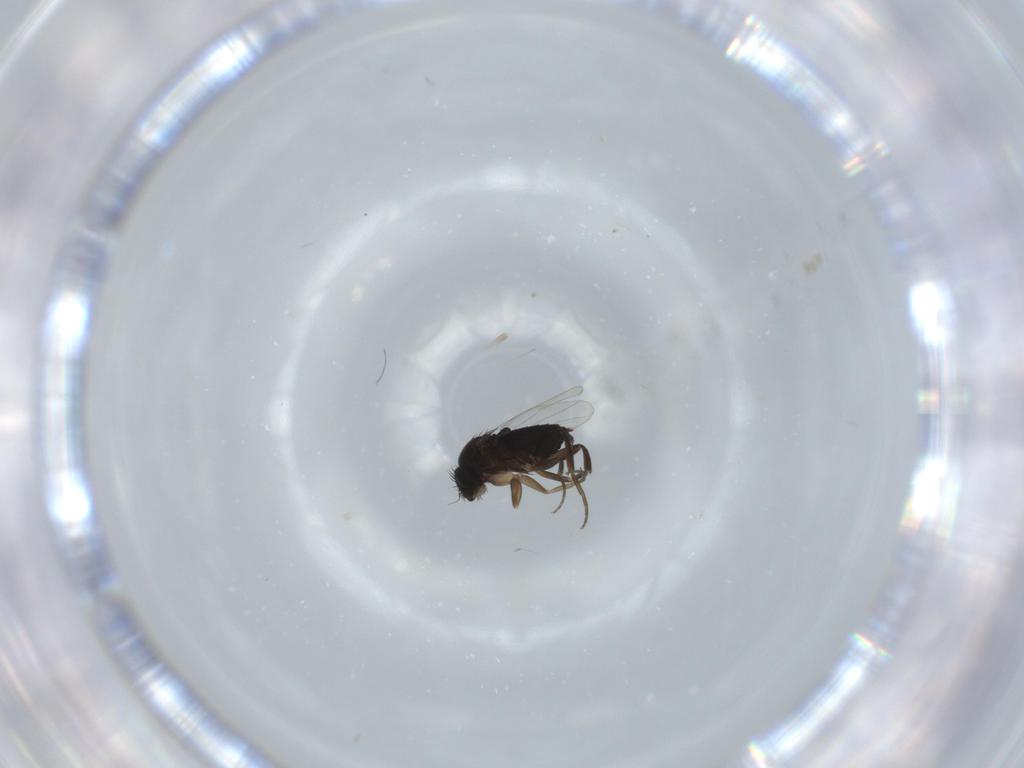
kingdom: Animalia
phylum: Arthropoda
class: Insecta
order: Diptera
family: Phoridae
